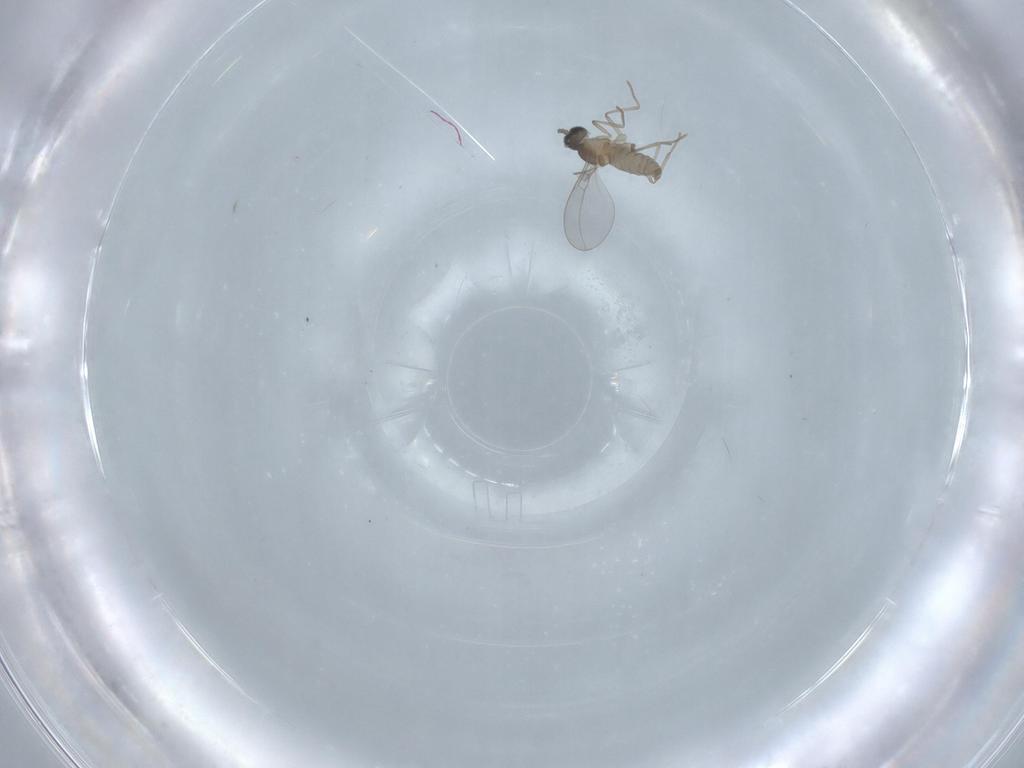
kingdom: Animalia
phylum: Arthropoda
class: Insecta
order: Diptera
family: Chironomidae
